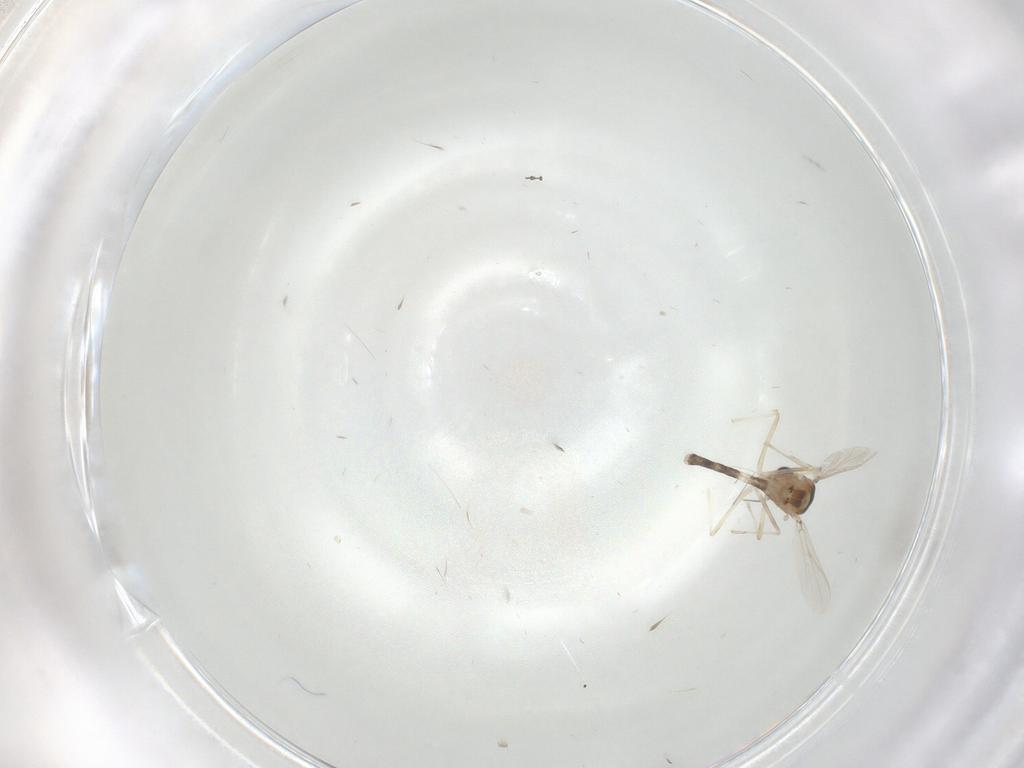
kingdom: Animalia
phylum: Arthropoda
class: Insecta
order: Diptera
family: Chironomidae
